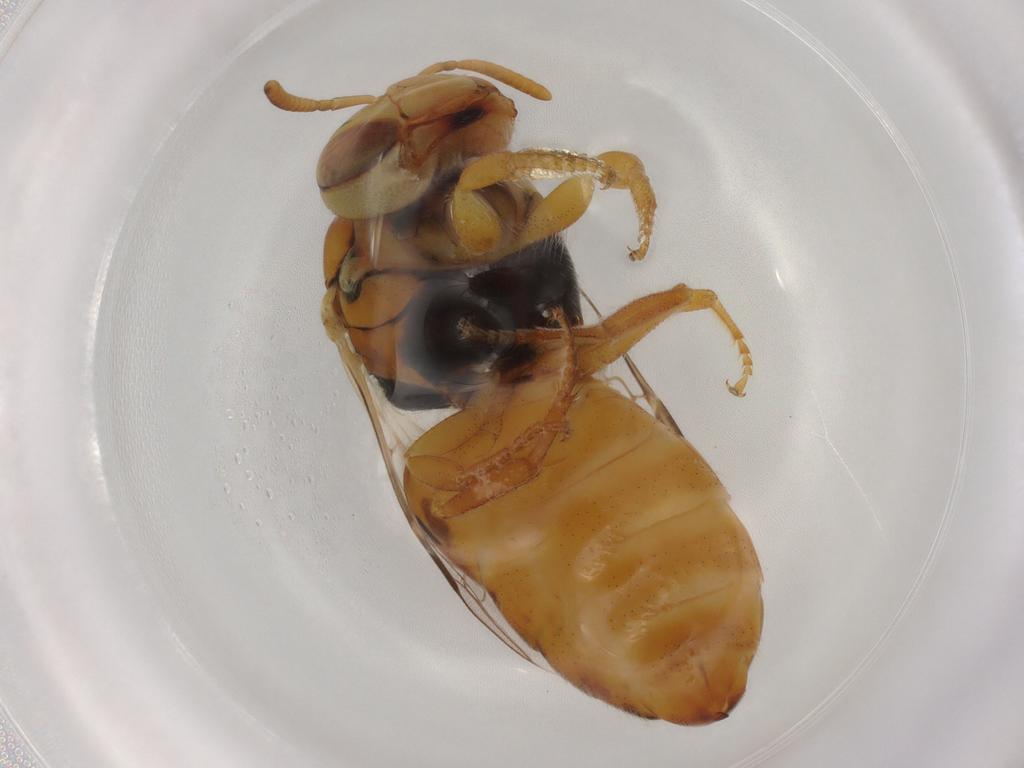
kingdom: Animalia
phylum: Arthropoda
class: Insecta
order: Hymenoptera
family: Colletidae
